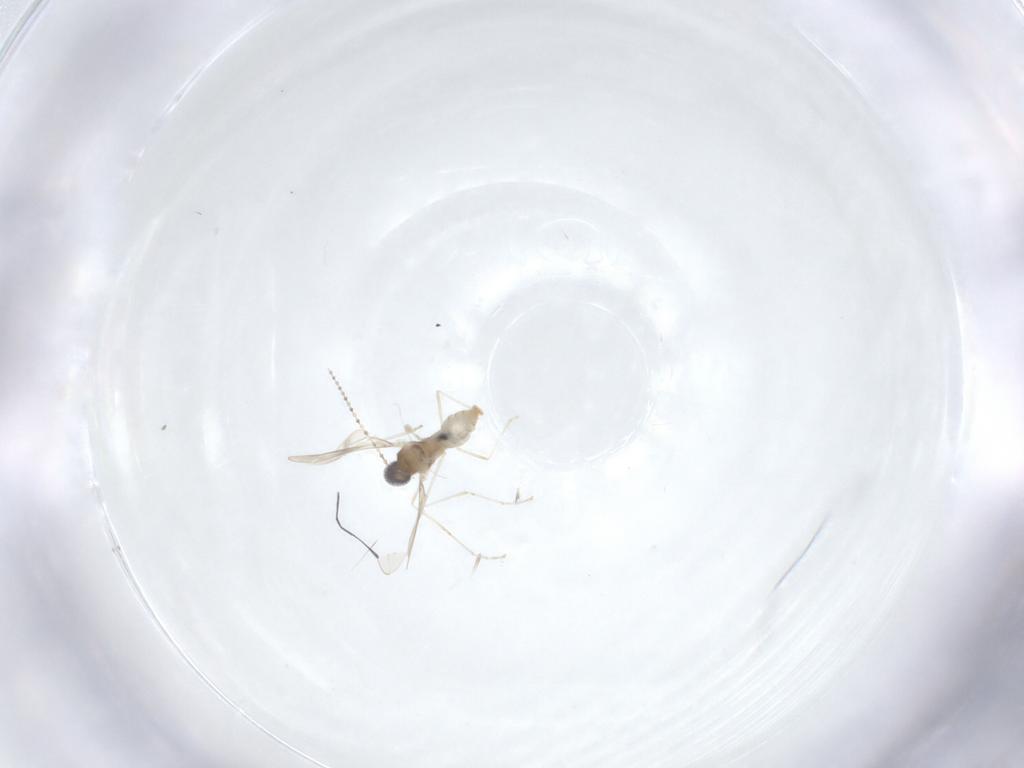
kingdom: Animalia
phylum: Arthropoda
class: Insecta
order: Diptera
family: Cecidomyiidae
